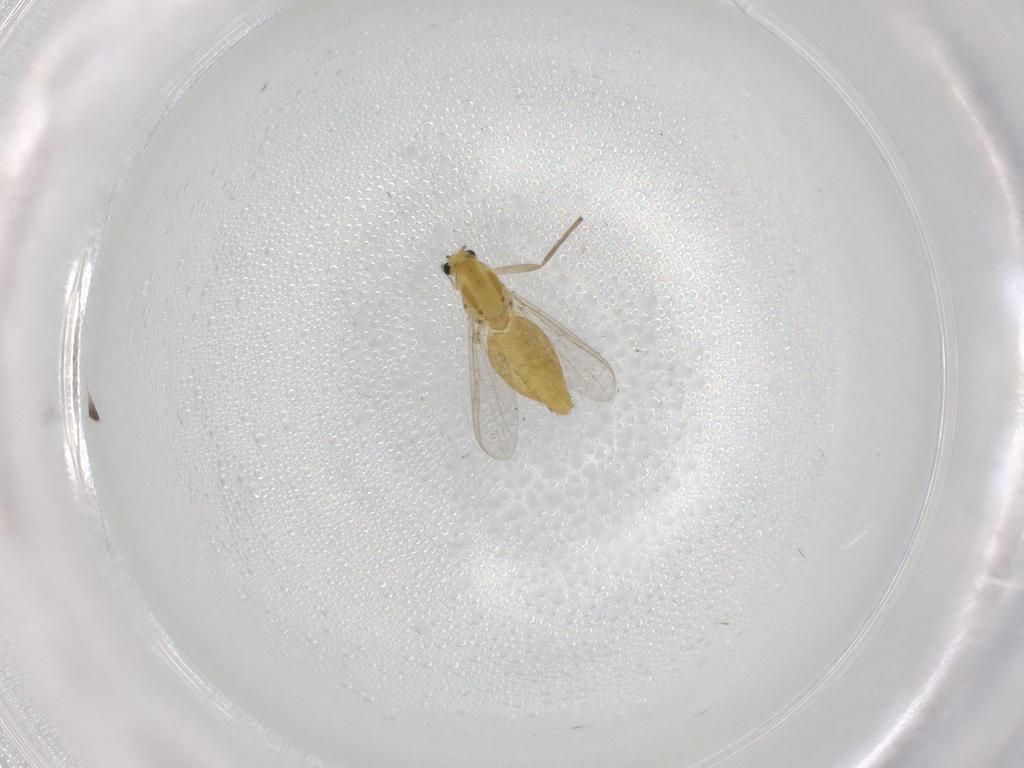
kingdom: Animalia
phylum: Arthropoda
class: Insecta
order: Diptera
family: Chironomidae
